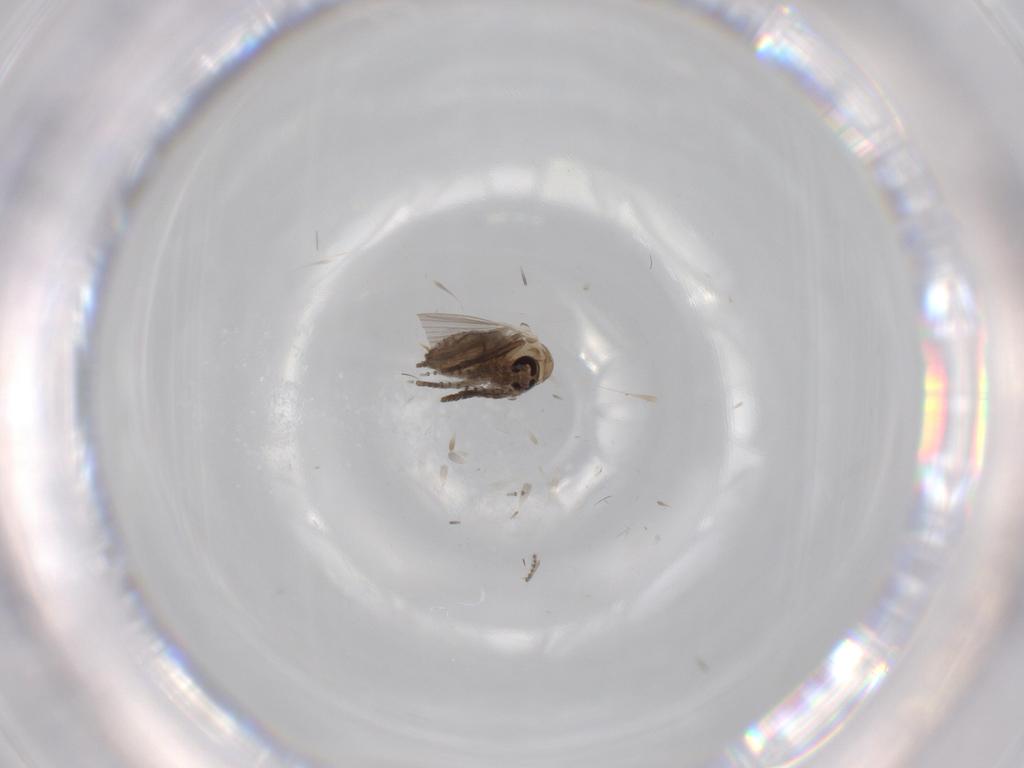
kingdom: Animalia
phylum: Arthropoda
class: Insecta
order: Diptera
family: Psychodidae
